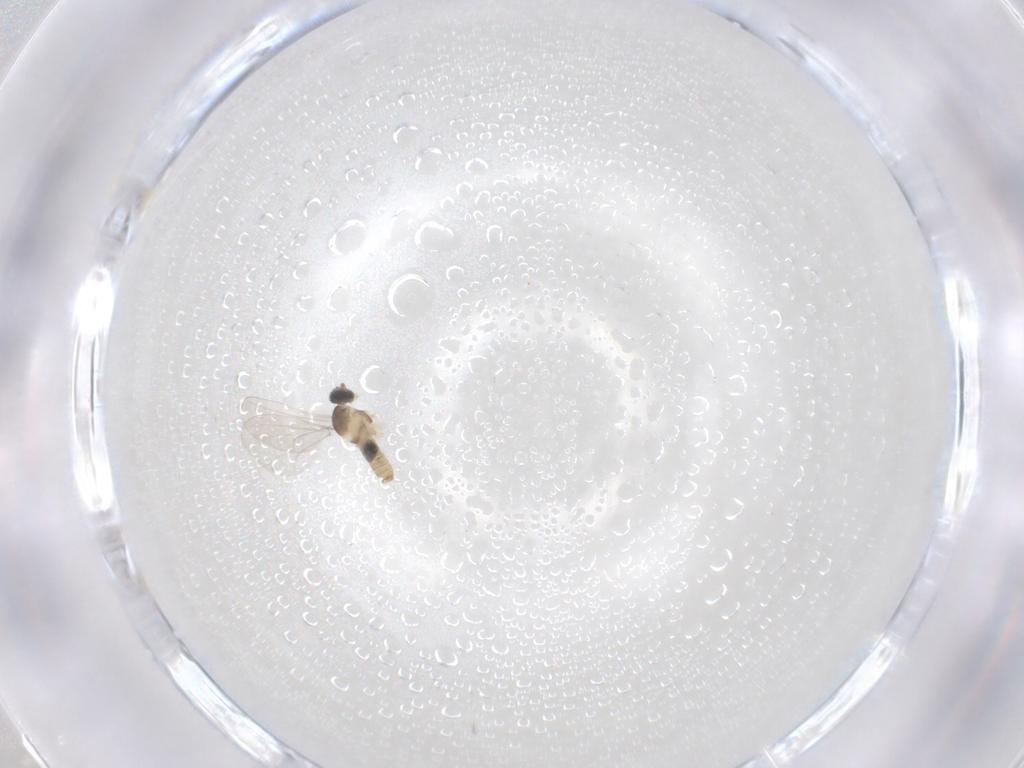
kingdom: Animalia
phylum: Arthropoda
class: Insecta
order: Diptera
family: Cecidomyiidae
